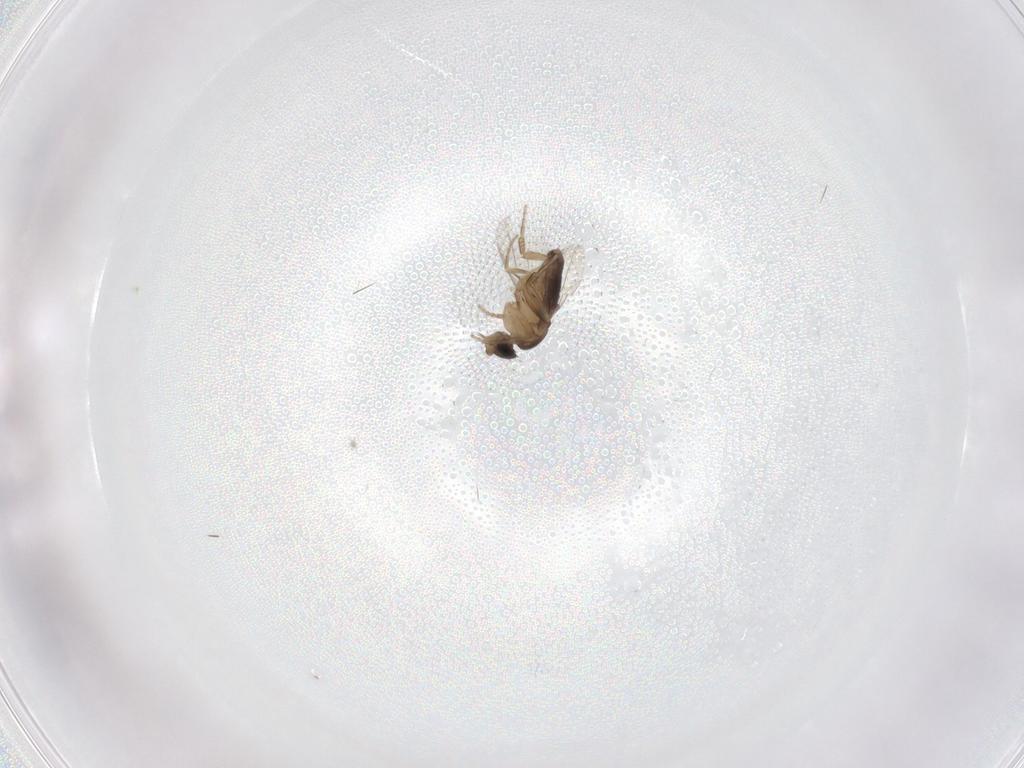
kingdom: Animalia
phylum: Arthropoda
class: Insecta
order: Diptera
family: Phoridae
